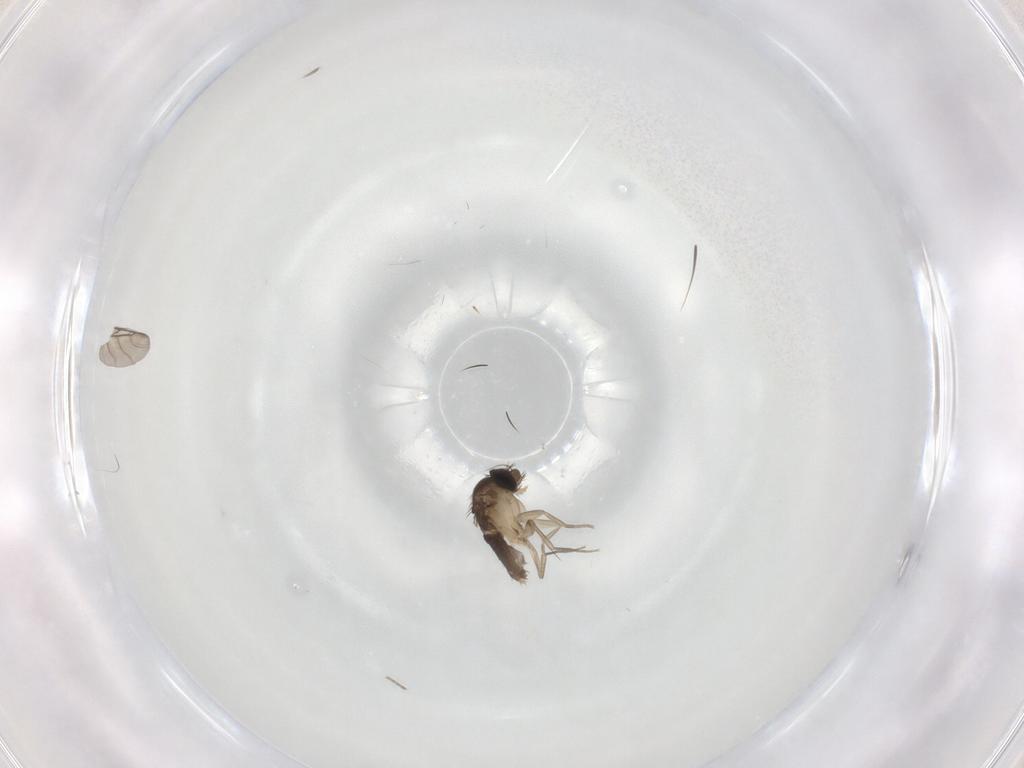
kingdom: Animalia
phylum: Arthropoda
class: Insecta
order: Diptera
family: Phoridae
